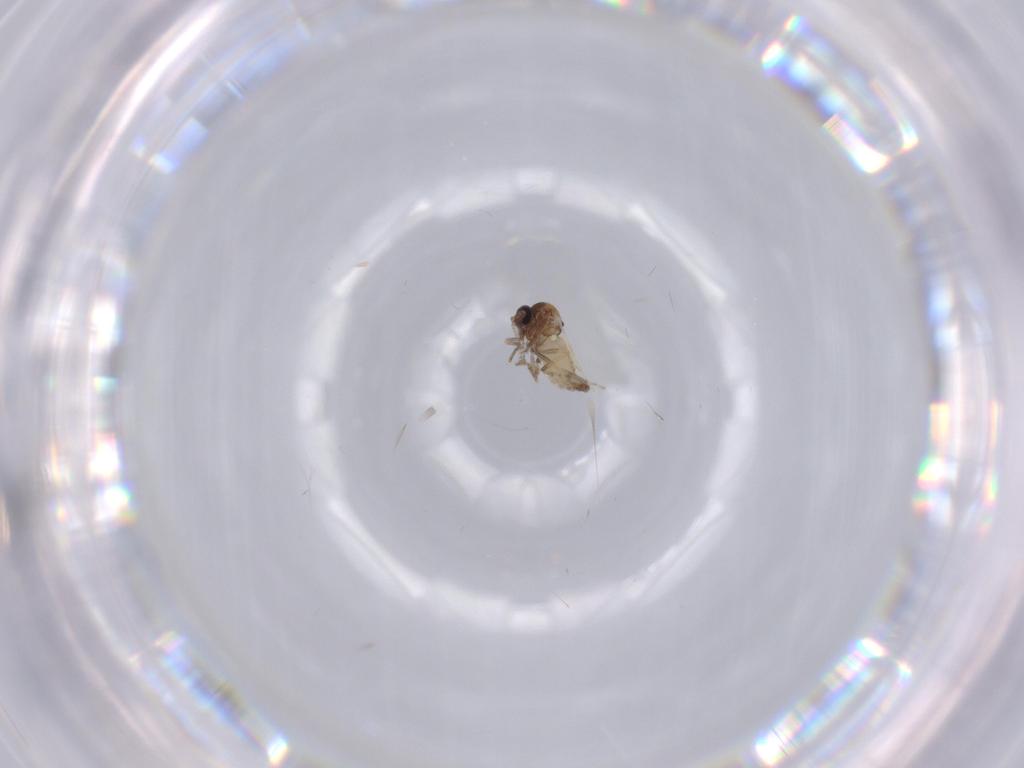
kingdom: Animalia
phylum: Arthropoda
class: Insecta
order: Diptera
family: Ceratopogonidae
